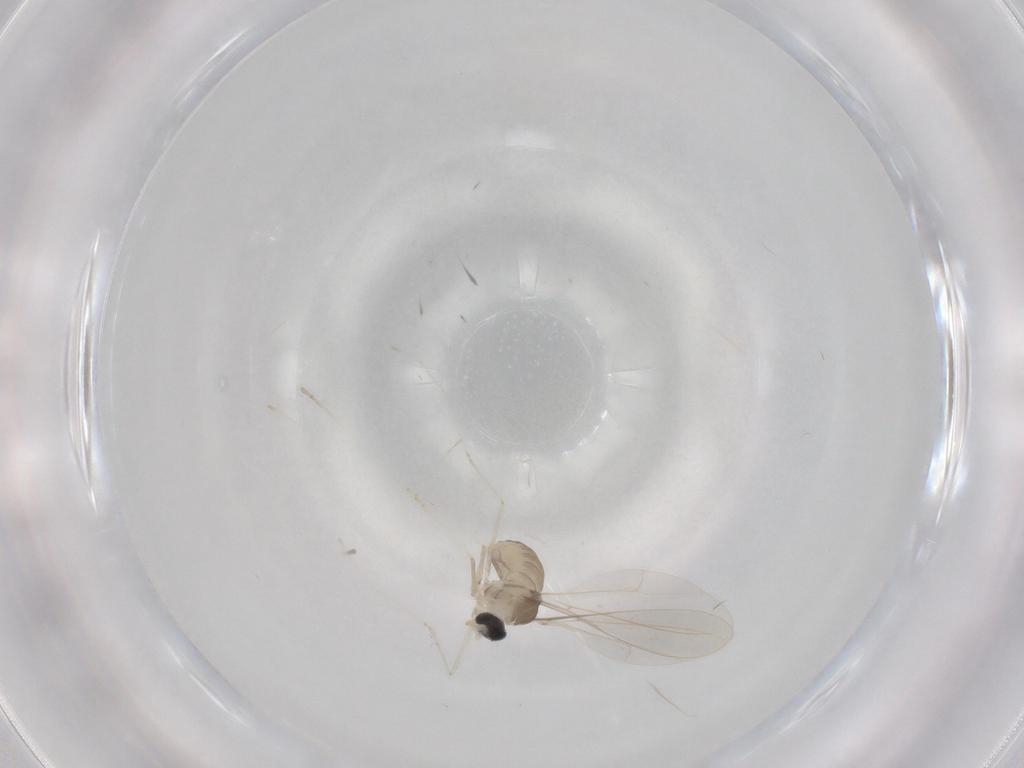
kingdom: Animalia
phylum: Arthropoda
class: Insecta
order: Diptera
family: Cecidomyiidae
